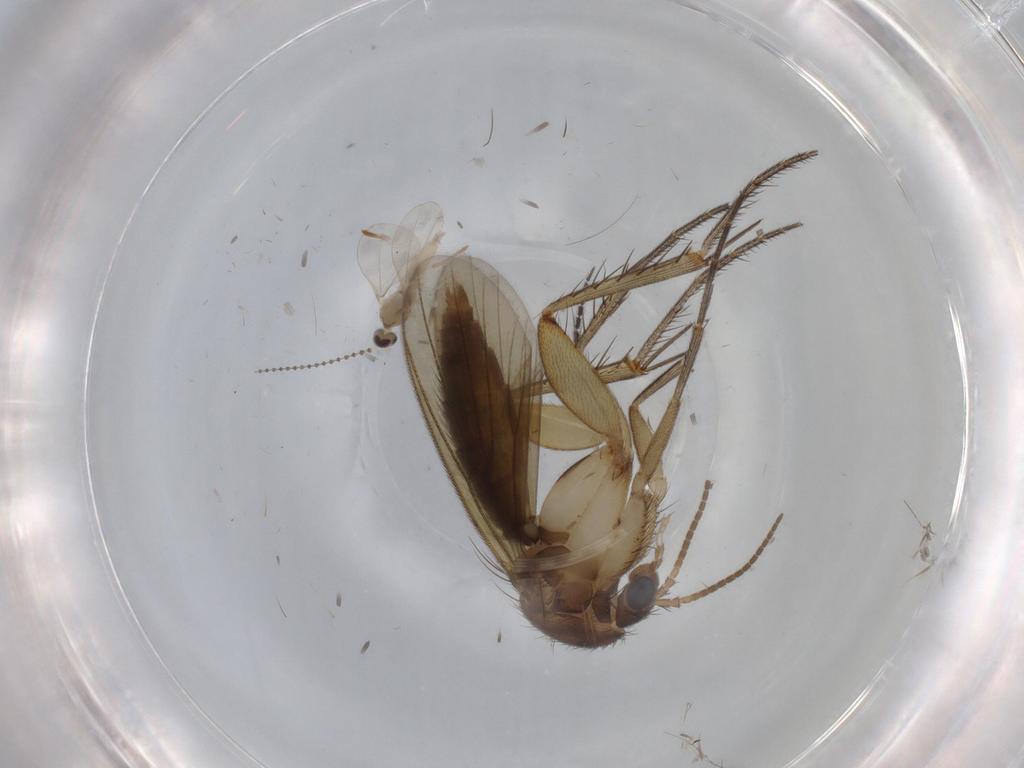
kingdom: Animalia
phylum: Arthropoda
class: Insecta
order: Diptera
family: Mycetophilidae
